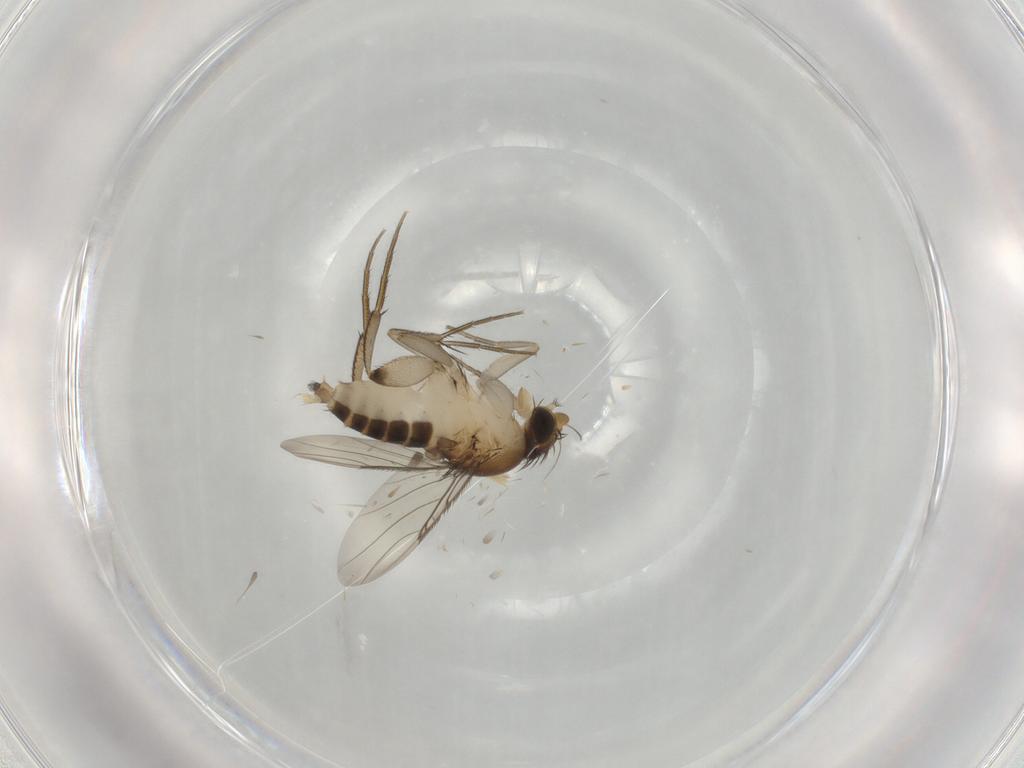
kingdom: Animalia
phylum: Arthropoda
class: Insecta
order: Diptera
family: Phoridae
